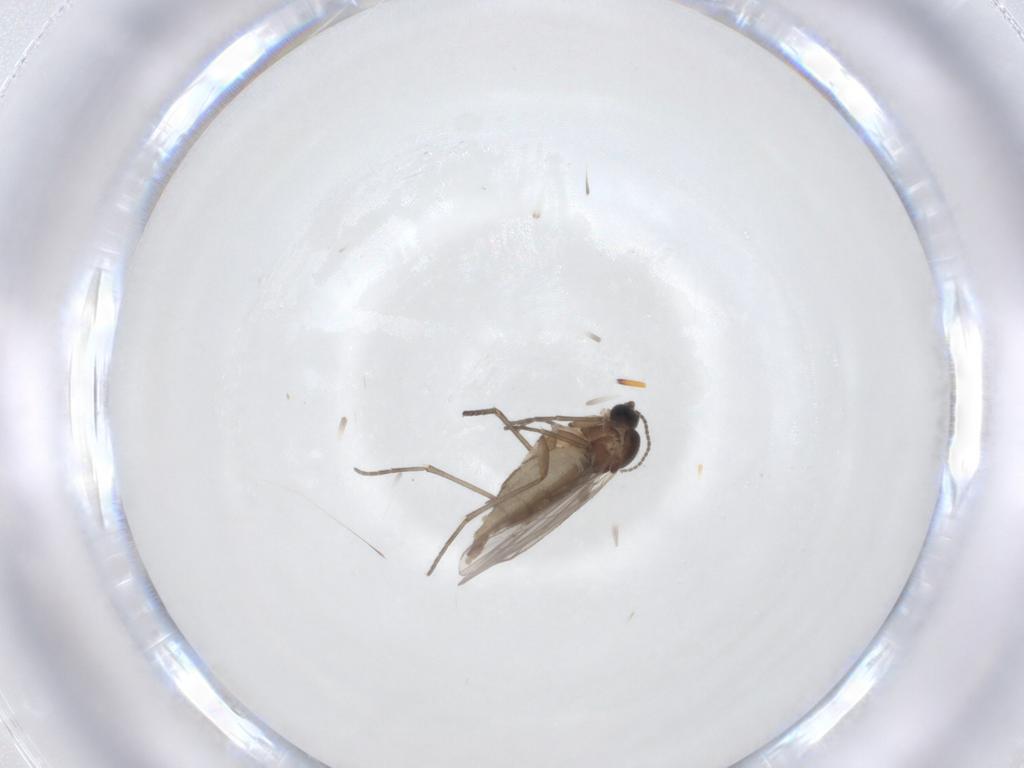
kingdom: Animalia
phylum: Arthropoda
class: Insecta
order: Diptera
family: Sciaridae
